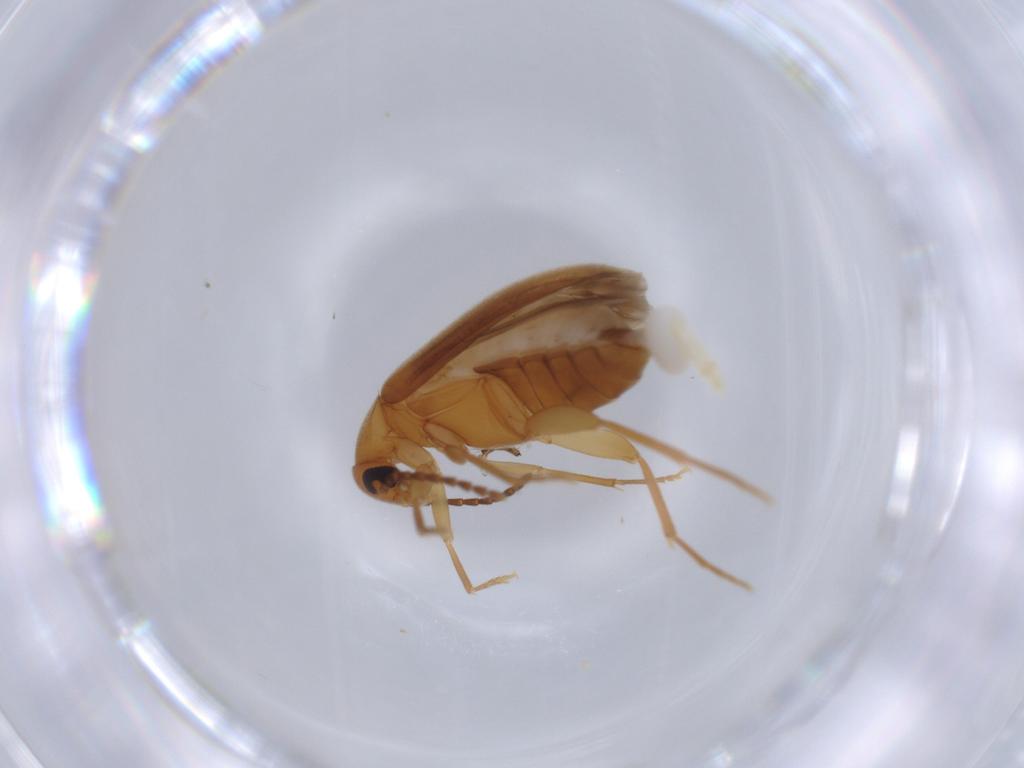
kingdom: Animalia
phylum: Arthropoda
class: Insecta
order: Coleoptera
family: Scraptiidae
